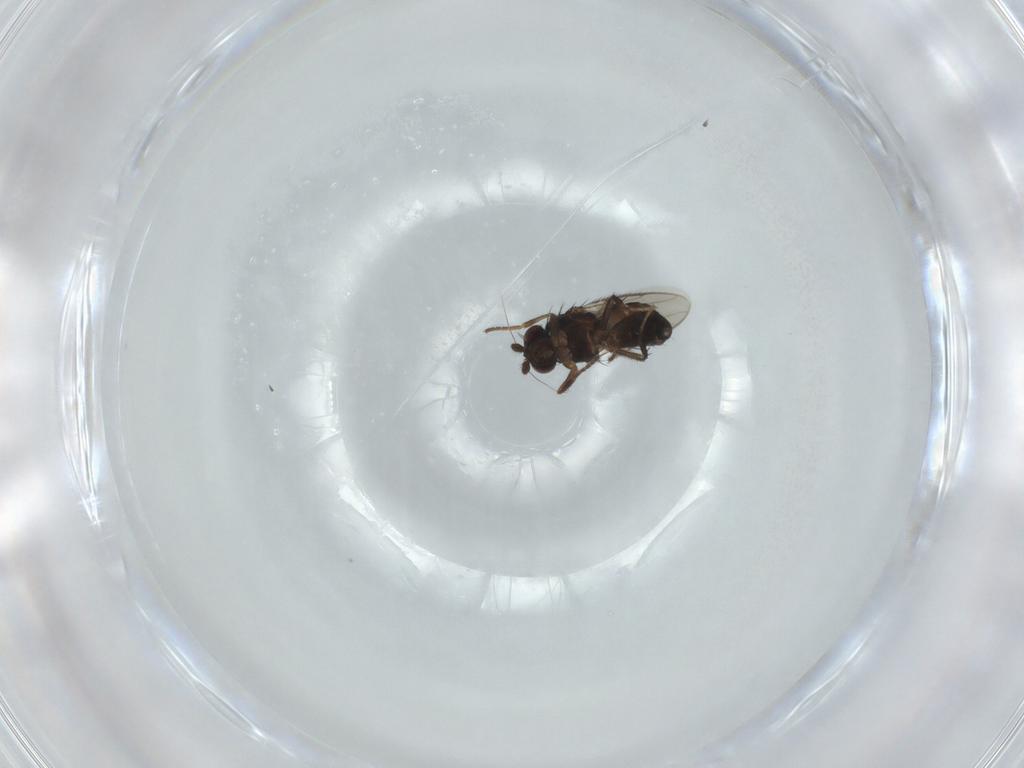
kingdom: Animalia
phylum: Arthropoda
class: Insecta
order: Diptera
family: Sphaeroceridae
